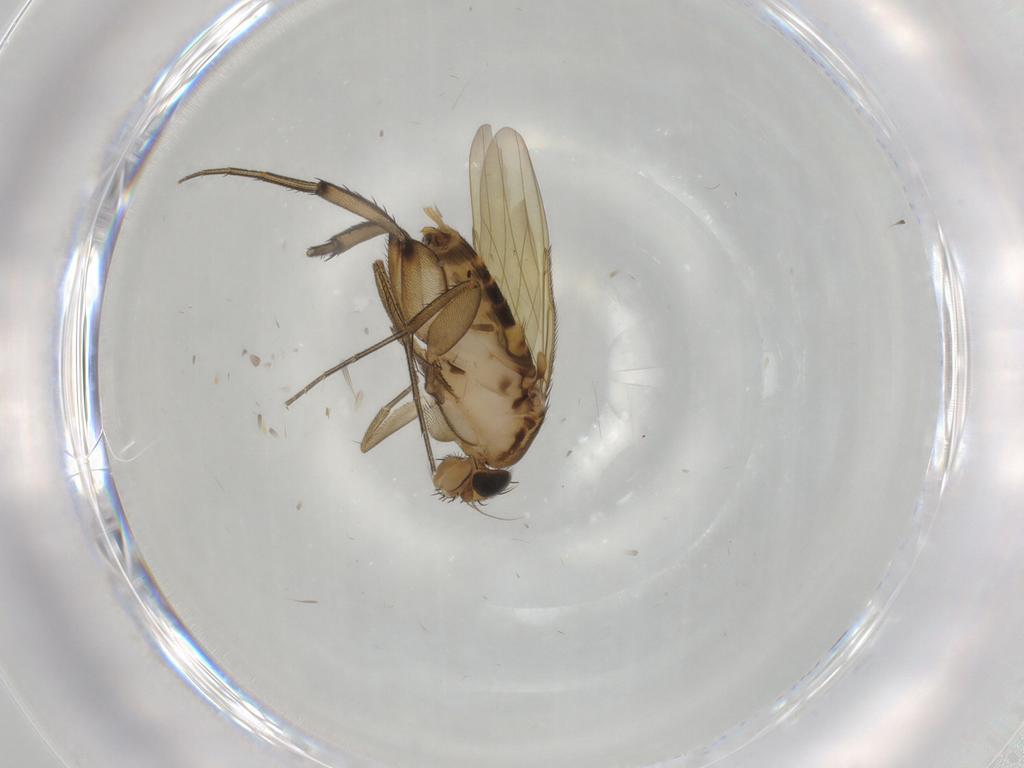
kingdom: Animalia
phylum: Arthropoda
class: Insecta
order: Diptera
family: Phoridae
